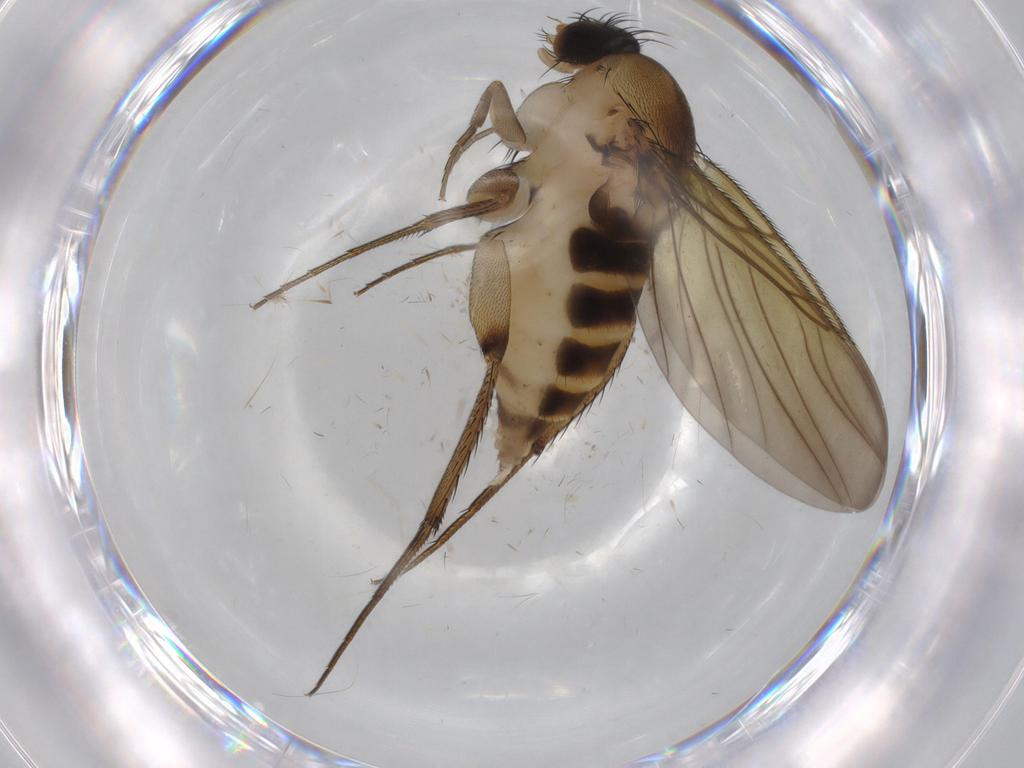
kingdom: Animalia
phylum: Arthropoda
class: Insecta
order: Diptera
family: Phoridae
